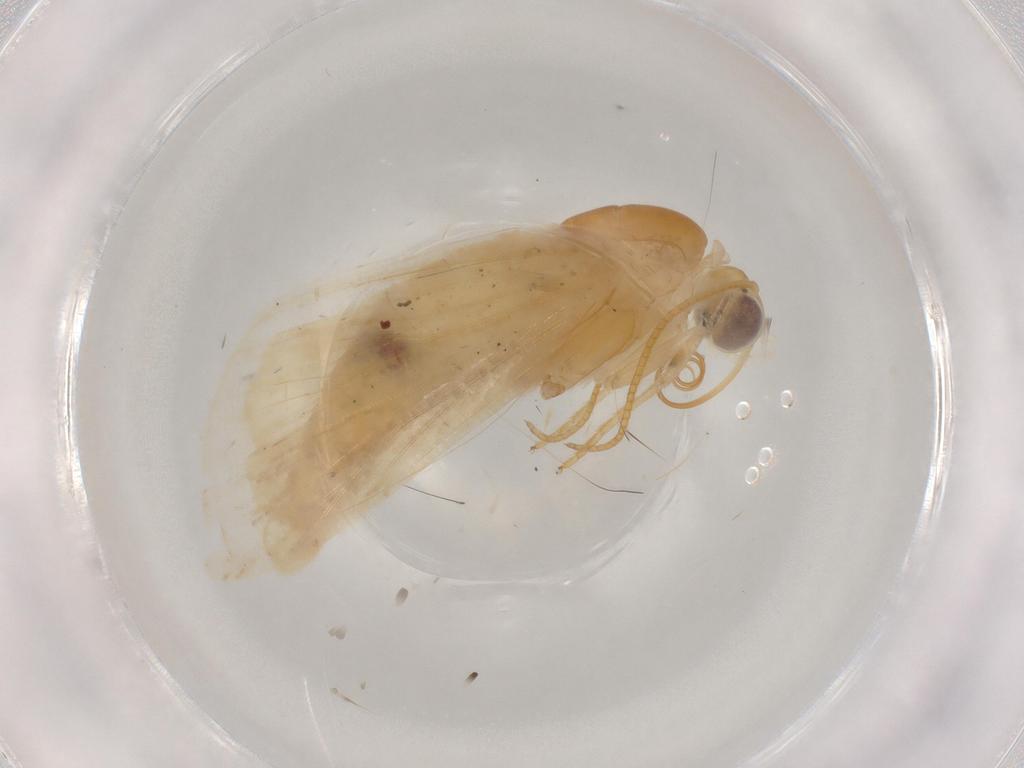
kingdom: Animalia
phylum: Arthropoda
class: Insecta
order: Lepidoptera
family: Noctuidae
